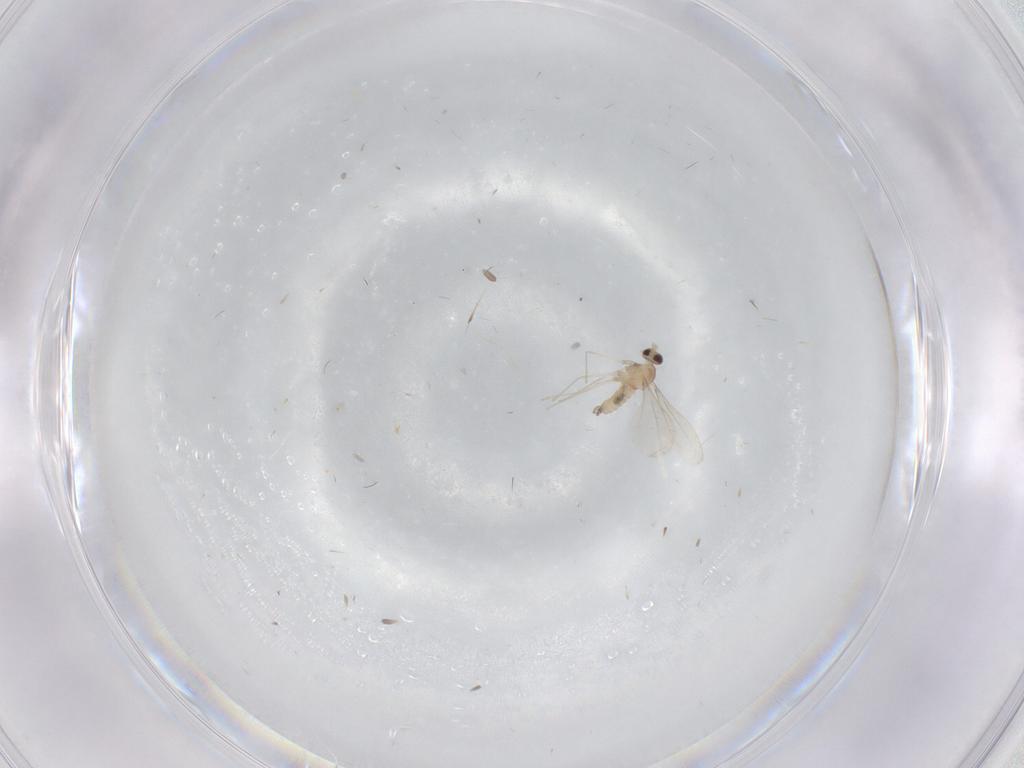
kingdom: Animalia
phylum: Arthropoda
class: Insecta
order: Diptera
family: Cecidomyiidae
